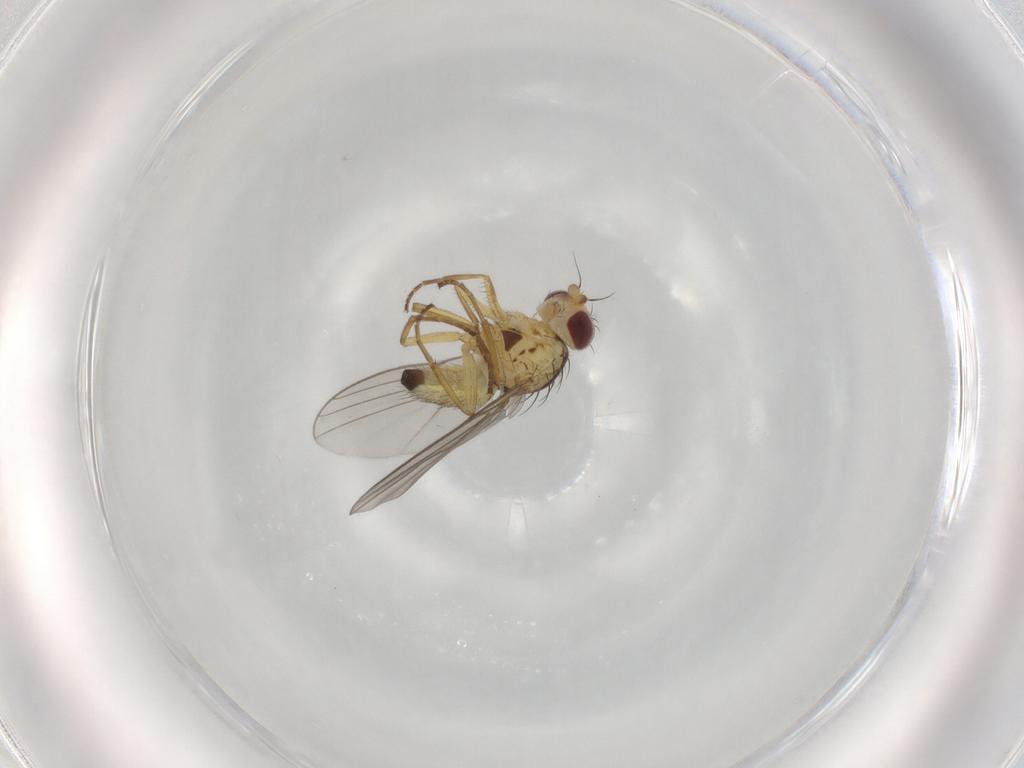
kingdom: Animalia
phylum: Arthropoda
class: Insecta
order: Diptera
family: Agromyzidae
